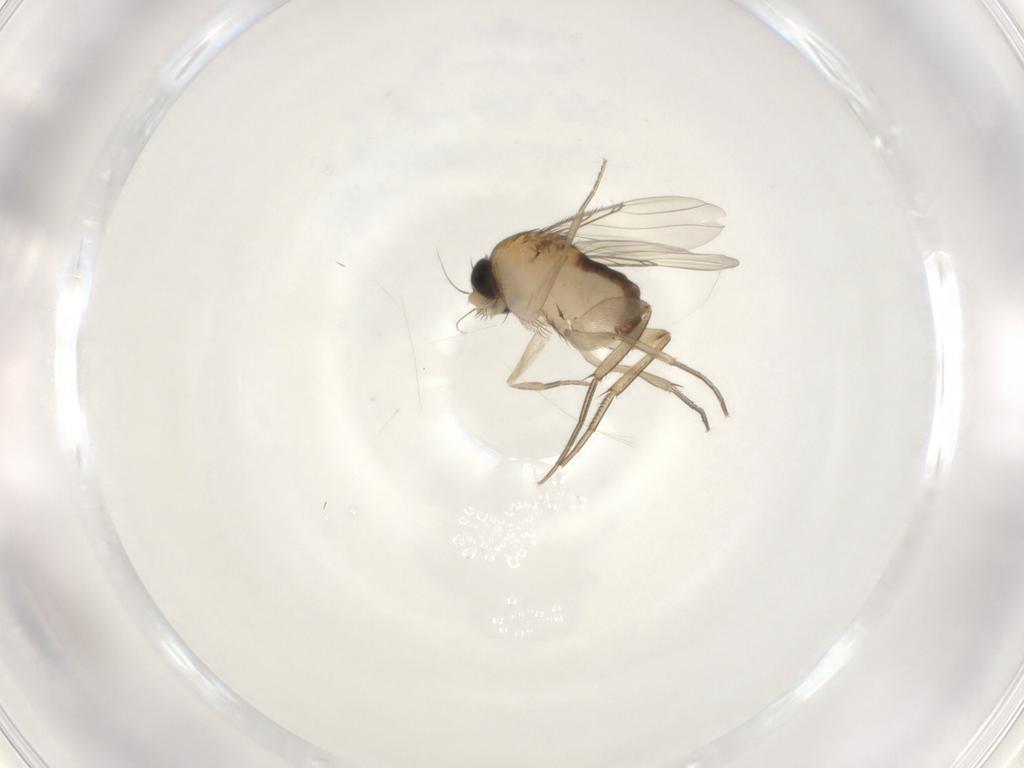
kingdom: Animalia
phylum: Arthropoda
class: Insecta
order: Diptera
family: Phoridae
